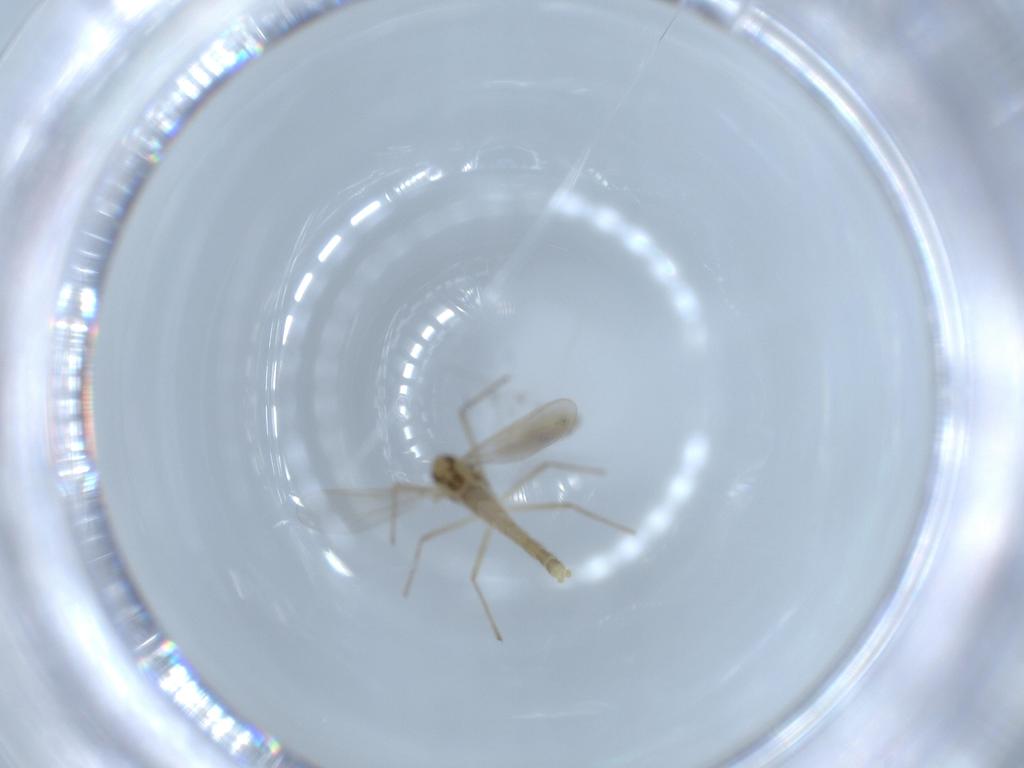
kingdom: Animalia
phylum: Arthropoda
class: Insecta
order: Diptera
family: Chironomidae
